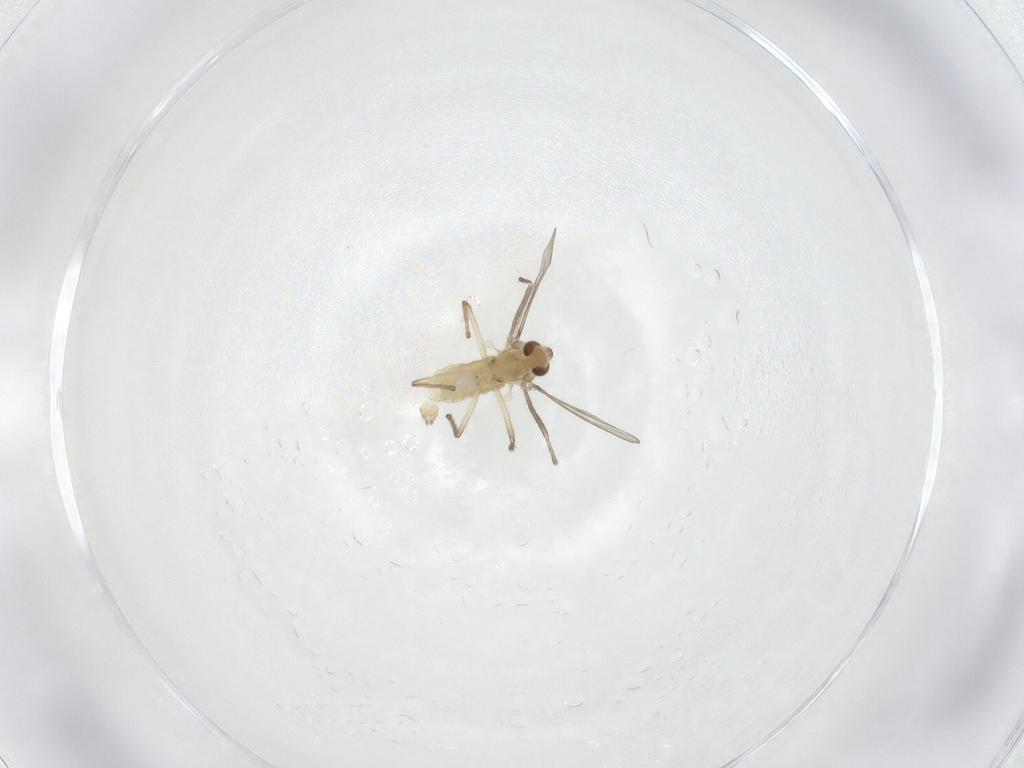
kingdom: Animalia
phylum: Arthropoda
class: Insecta
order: Diptera
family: Chironomidae
